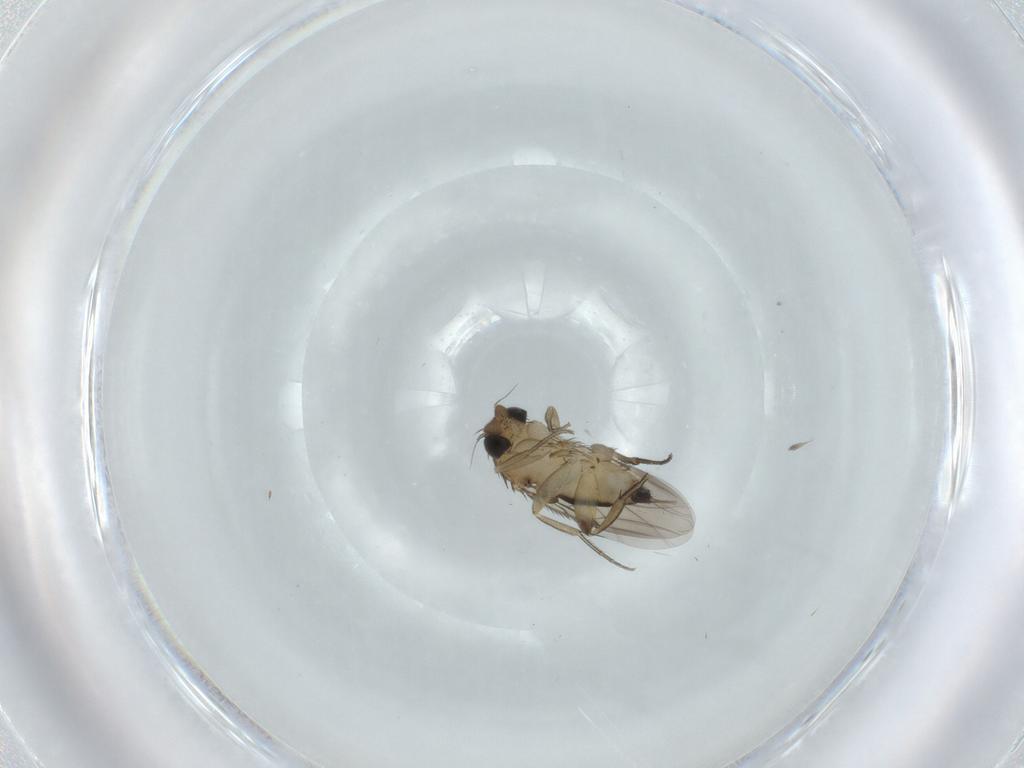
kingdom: Animalia
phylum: Arthropoda
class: Insecta
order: Diptera
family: Phoridae
